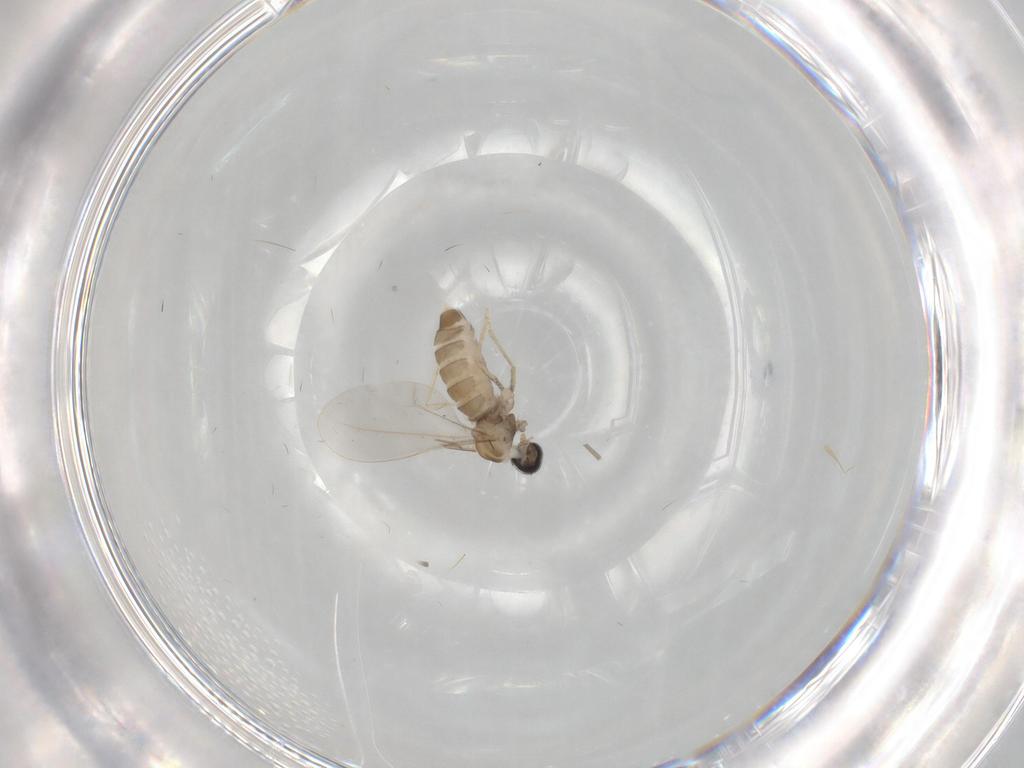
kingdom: Animalia
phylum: Arthropoda
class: Insecta
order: Diptera
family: Cecidomyiidae
